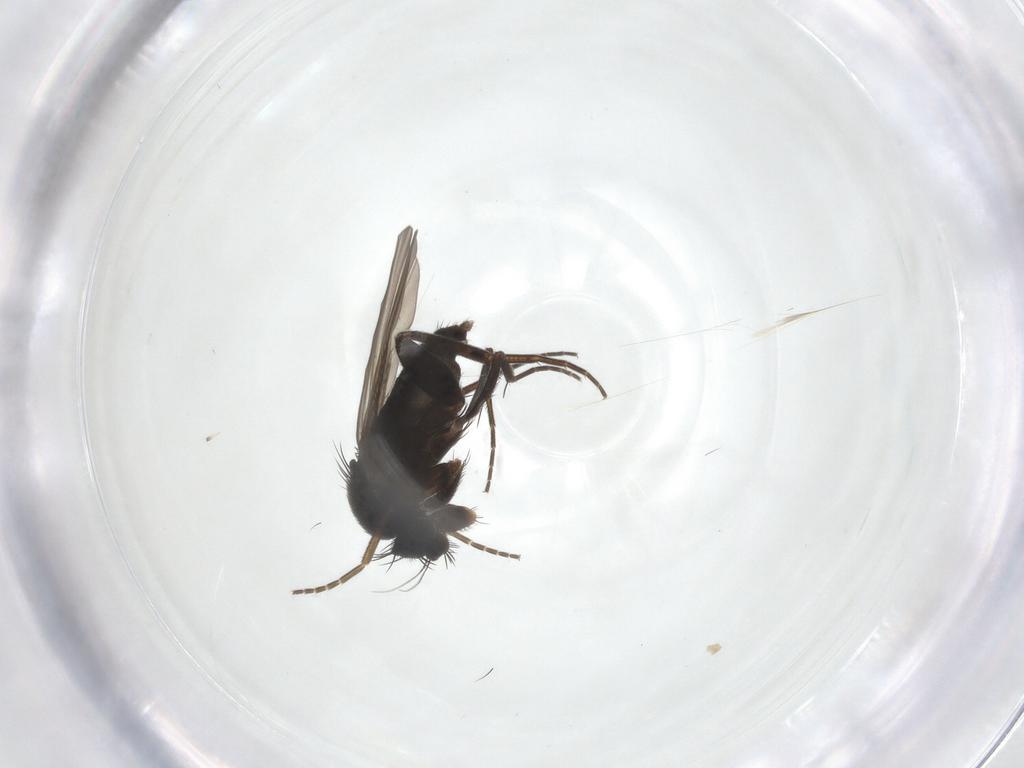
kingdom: Animalia
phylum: Arthropoda
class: Insecta
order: Diptera
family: Phoridae
